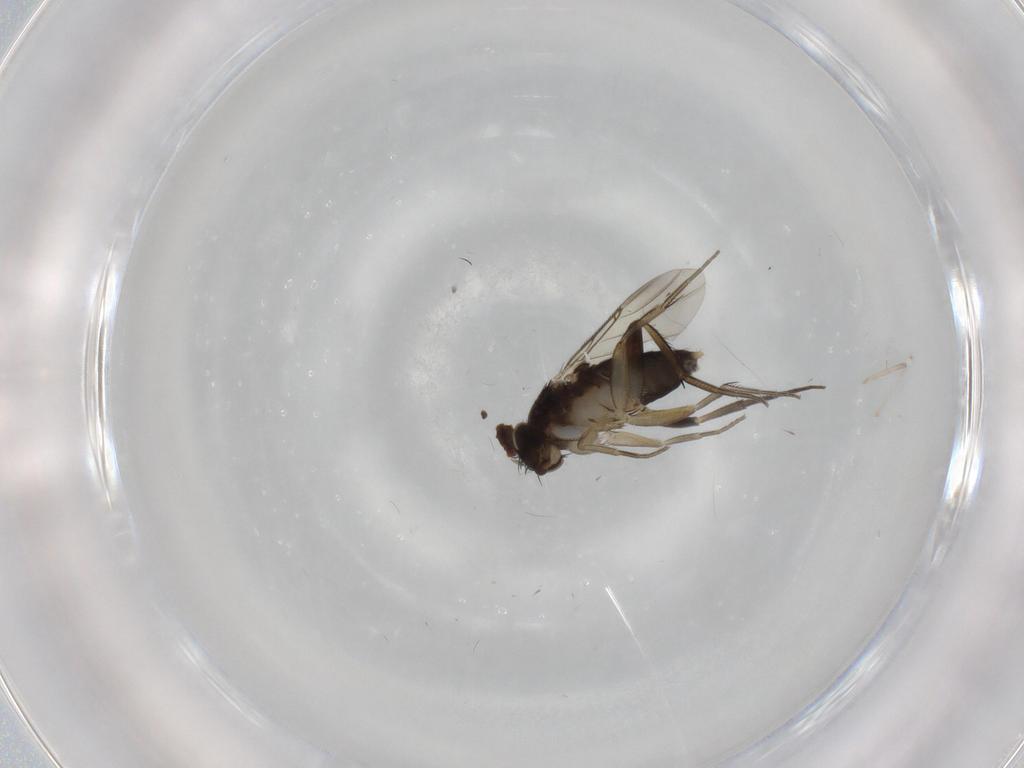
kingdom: Animalia
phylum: Arthropoda
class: Insecta
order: Diptera
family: Phoridae
